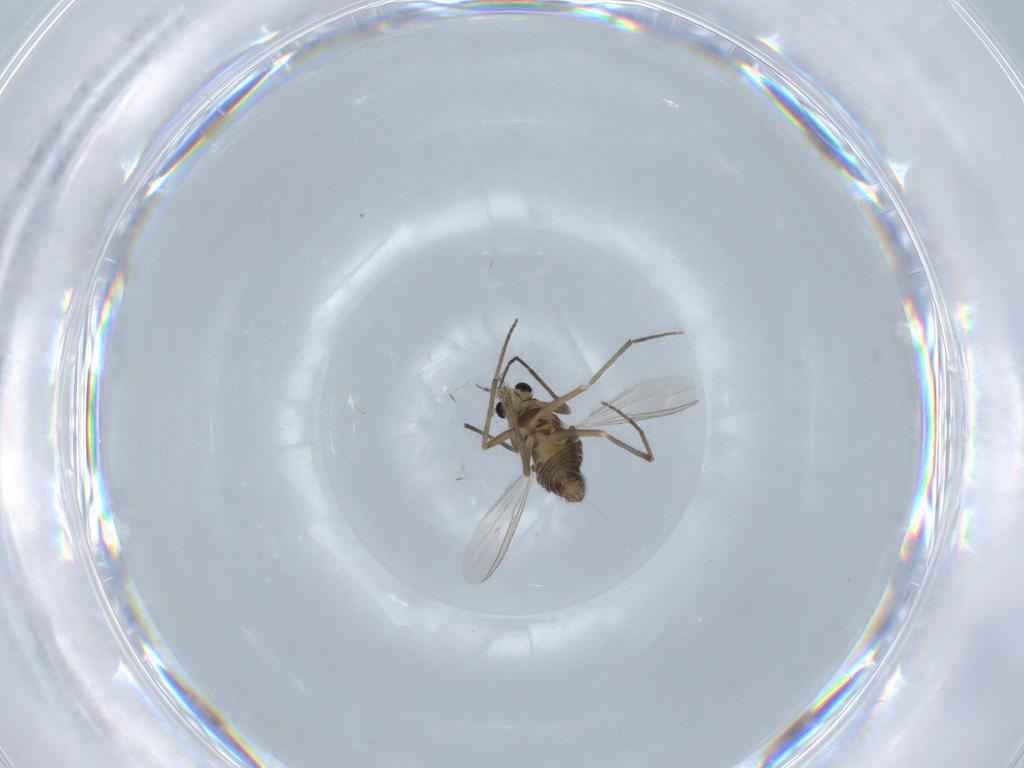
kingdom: Animalia
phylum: Arthropoda
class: Insecta
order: Diptera
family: Chironomidae
